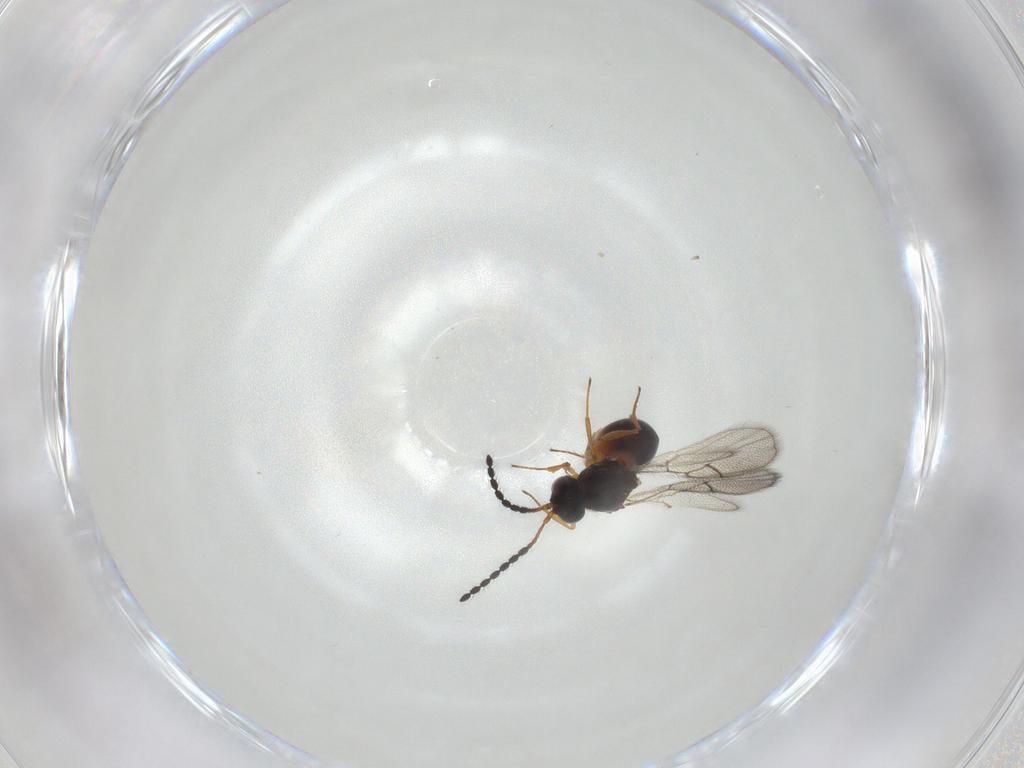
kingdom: Animalia
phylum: Arthropoda
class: Insecta
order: Hymenoptera
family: Figitidae
